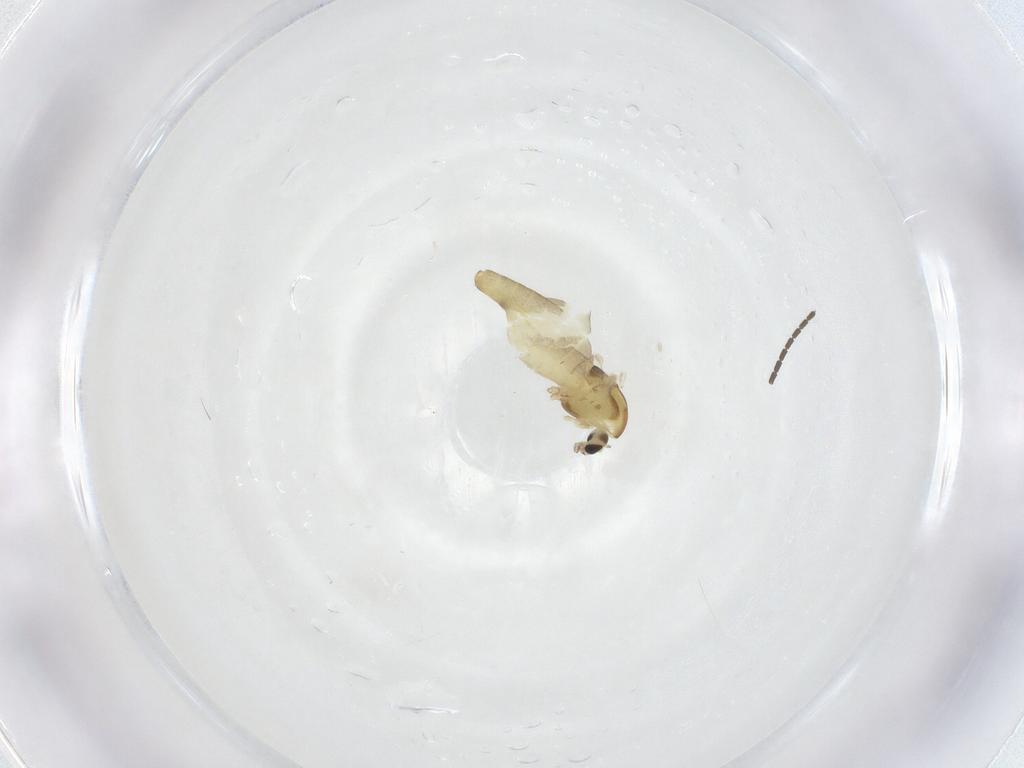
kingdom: Animalia
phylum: Arthropoda
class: Insecta
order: Diptera
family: Chironomidae
